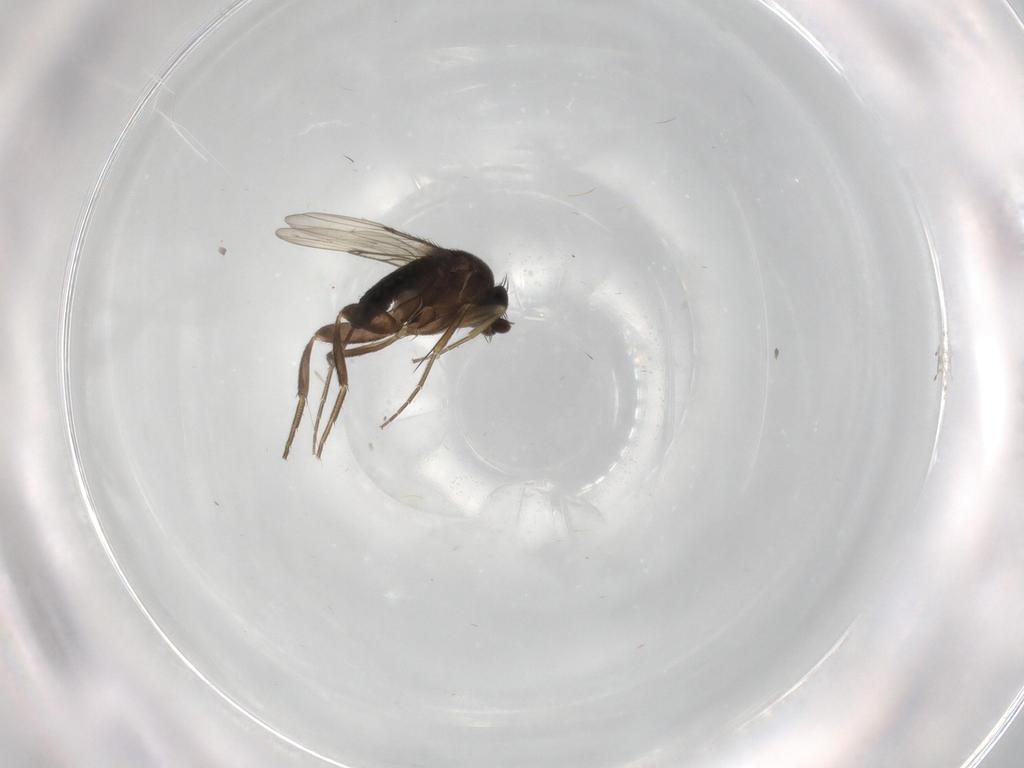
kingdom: Animalia
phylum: Arthropoda
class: Insecta
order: Diptera
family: Phoridae
